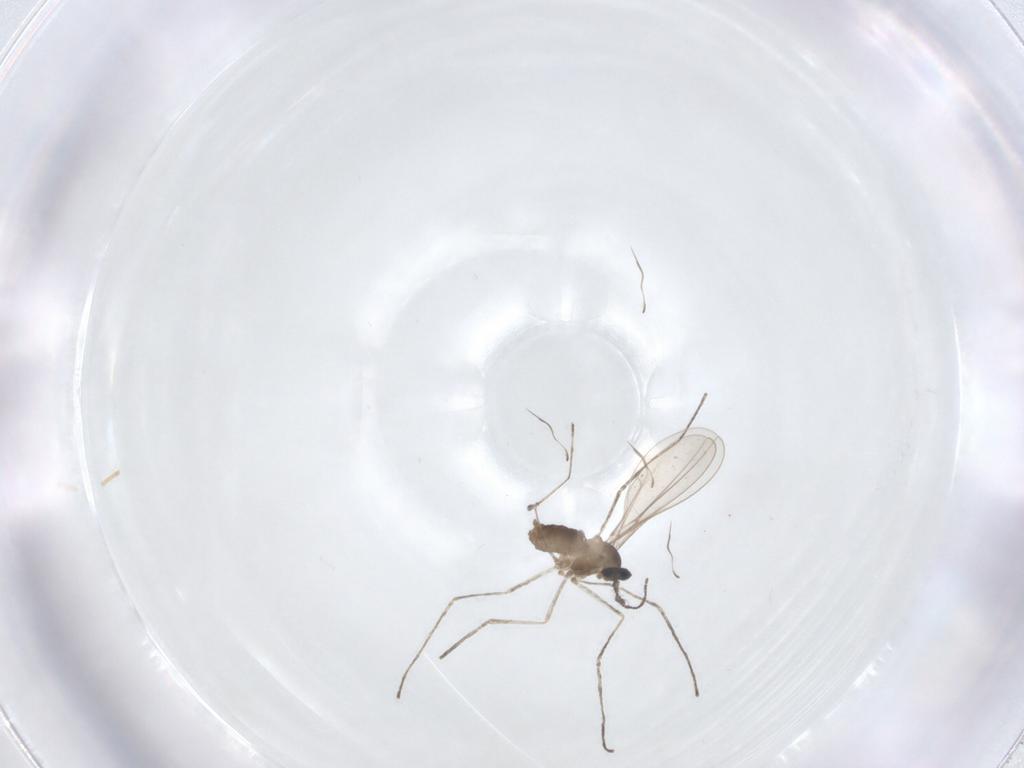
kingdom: Animalia
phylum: Arthropoda
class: Insecta
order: Diptera
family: Cecidomyiidae
